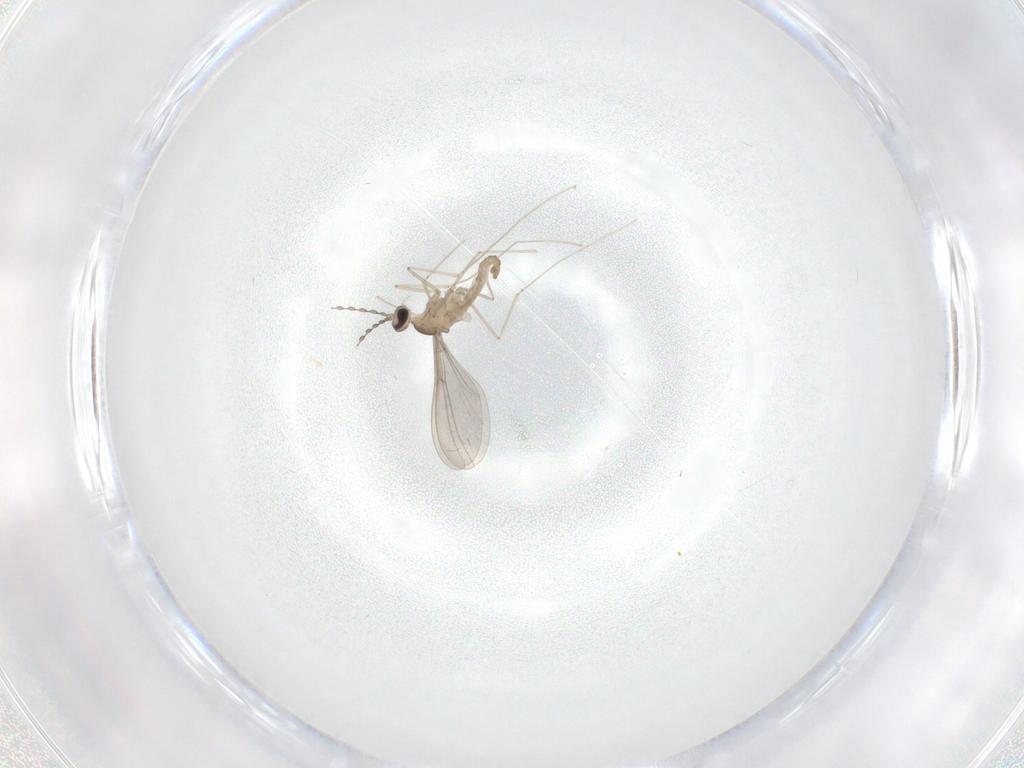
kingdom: Animalia
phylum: Arthropoda
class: Insecta
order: Diptera
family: Cecidomyiidae
